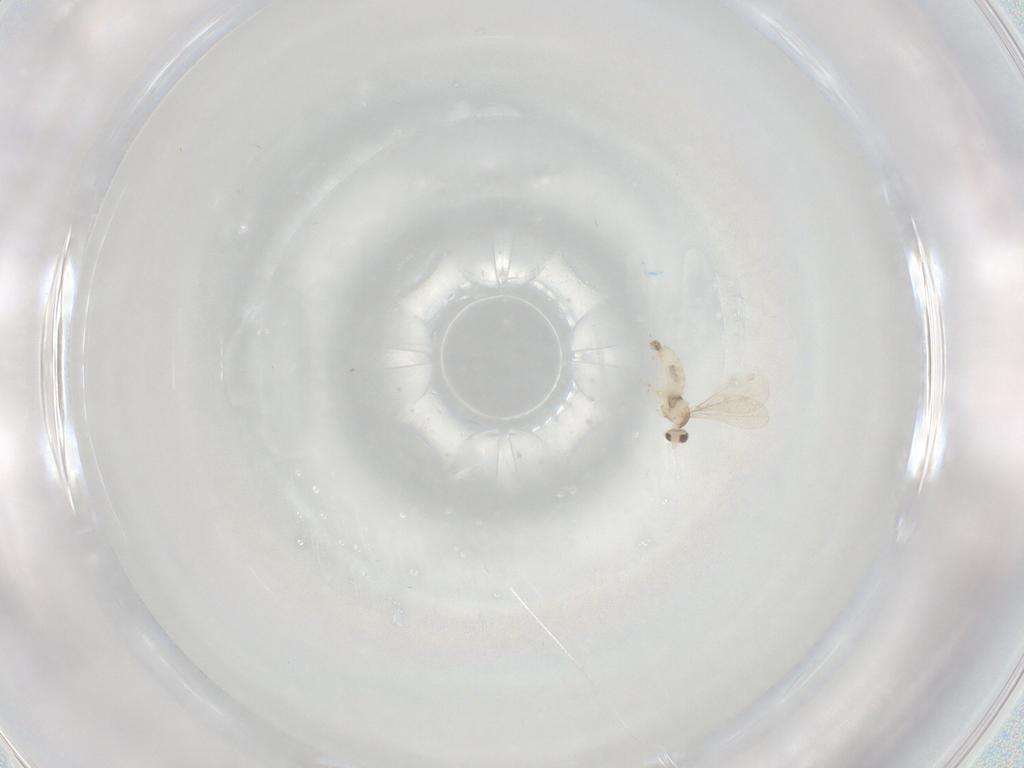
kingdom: Animalia
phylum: Arthropoda
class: Insecta
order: Diptera
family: Cecidomyiidae
